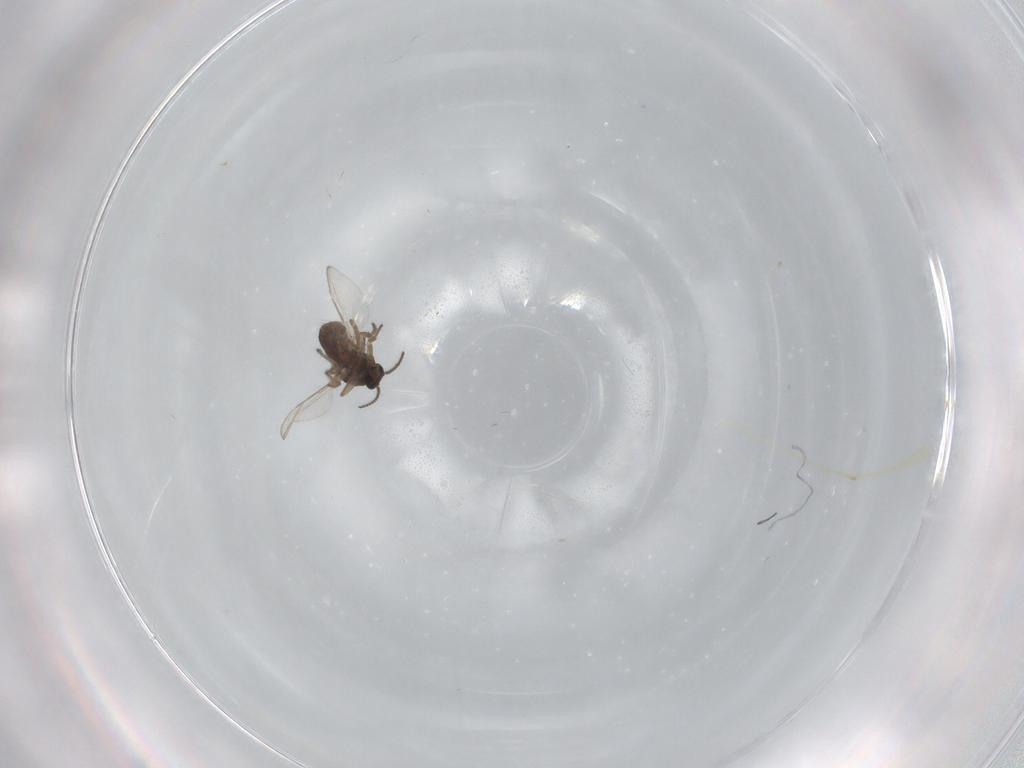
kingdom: Animalia
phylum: Arthropoda
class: Insecta
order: Diptera
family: Ceratopogonidae
